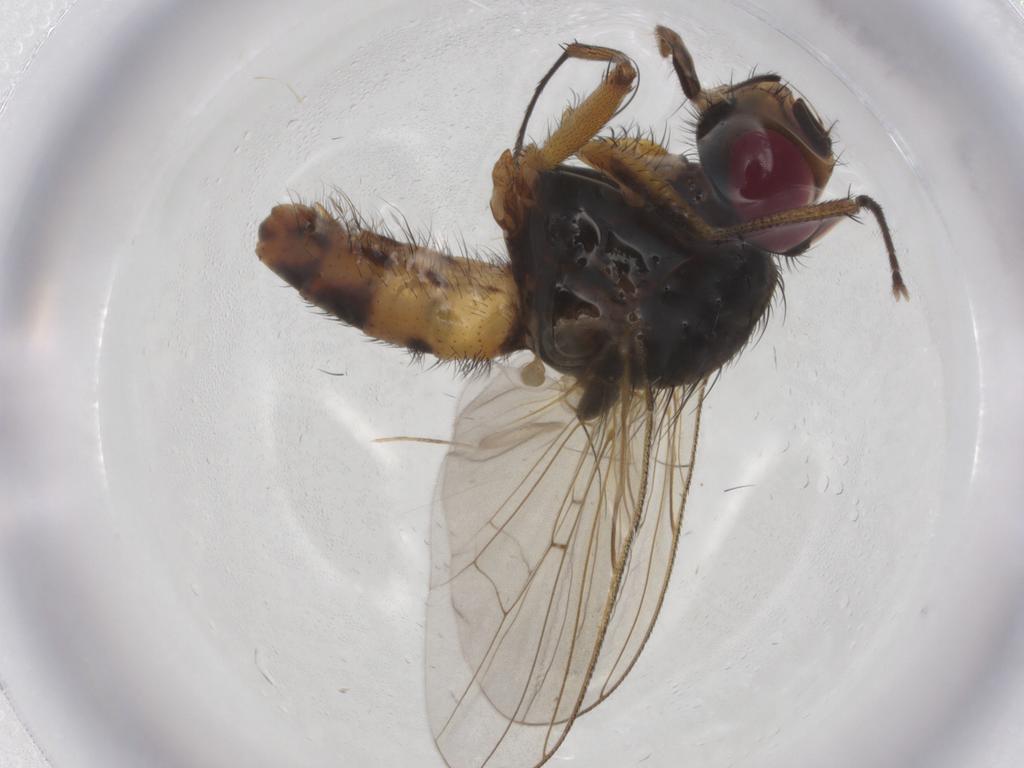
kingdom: Animalia
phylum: Arthropoda
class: Insecta
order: Diptera
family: Anthomyiidae
